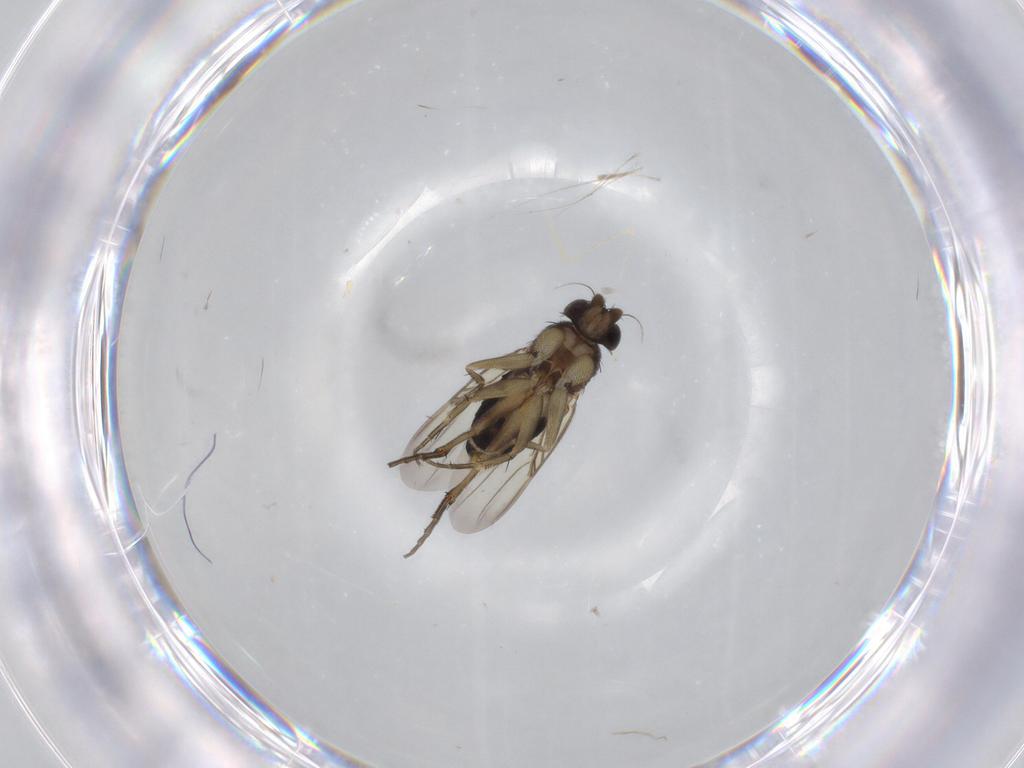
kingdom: Animalia
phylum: Arthropoda
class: Insecta
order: Diptera
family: Cecidomyiidae
